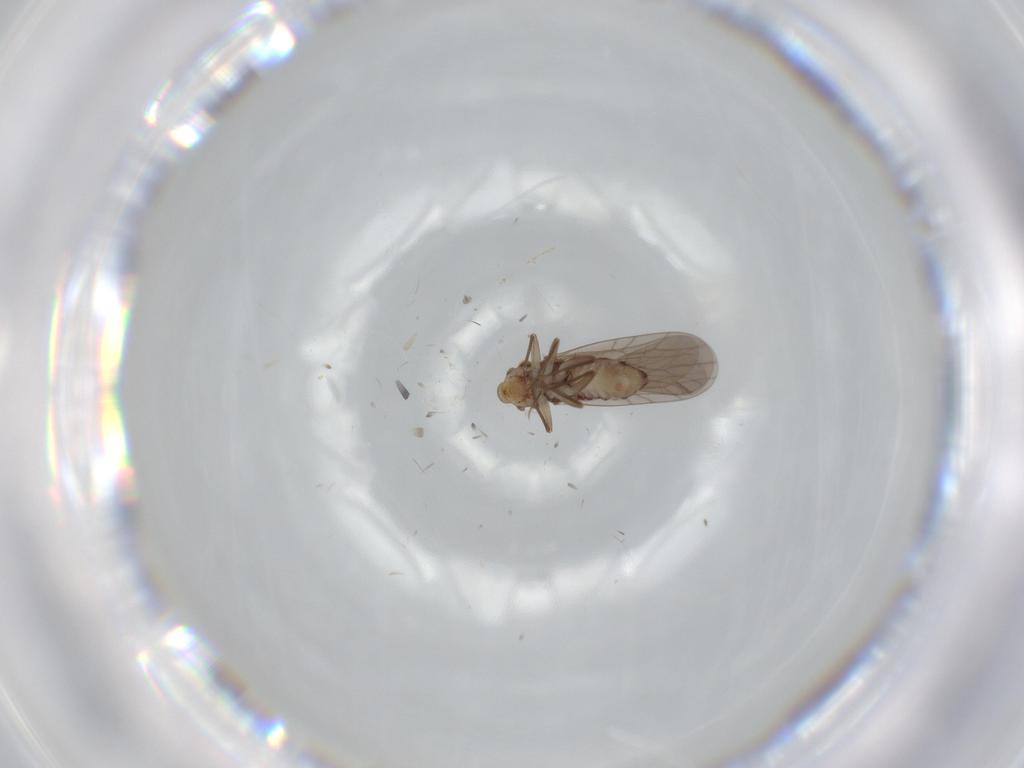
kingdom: Animalia
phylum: Arthropoda
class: Insecta
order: Psocodea
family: Lepidopsocidae
